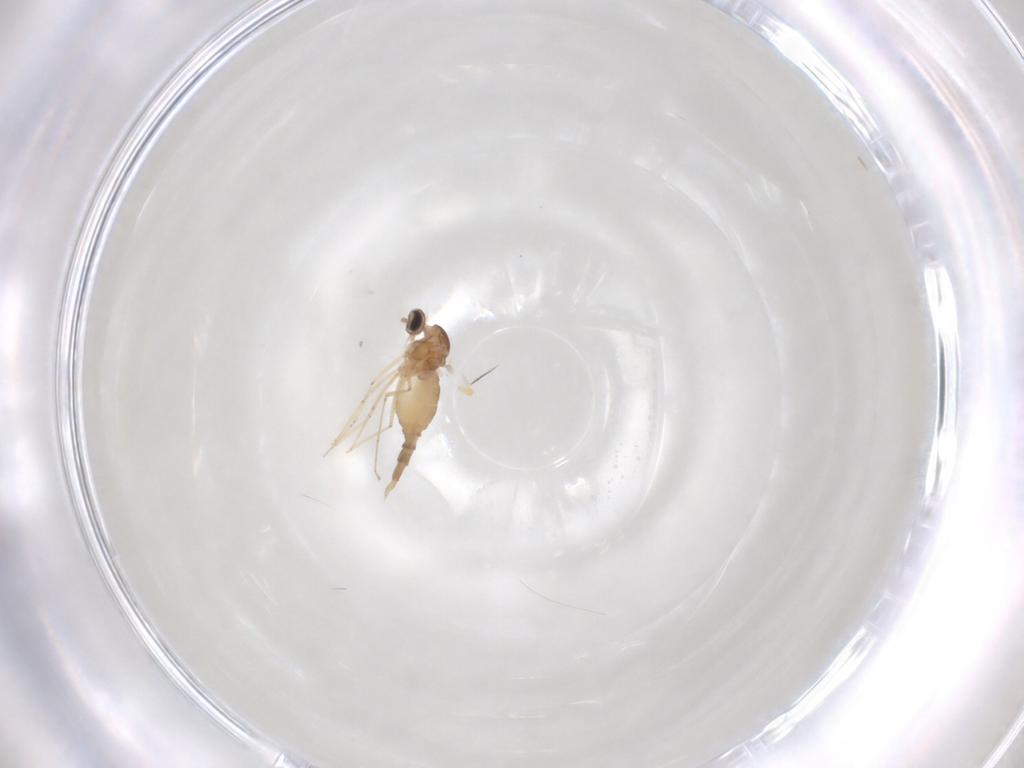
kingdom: Animalia
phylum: Arthropoda
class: Insecta
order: Diptera
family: Cecidomyiidae
